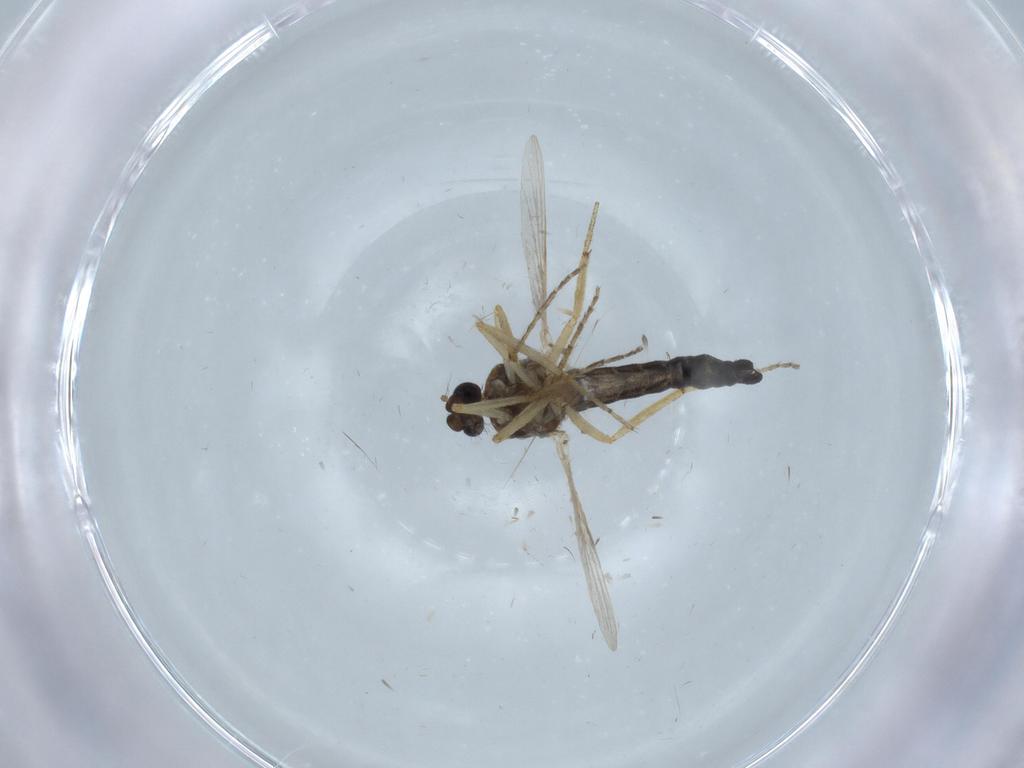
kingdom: Animalia
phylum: Arthropoda
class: Insecta
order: Diptera
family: Ceratopogonidae
